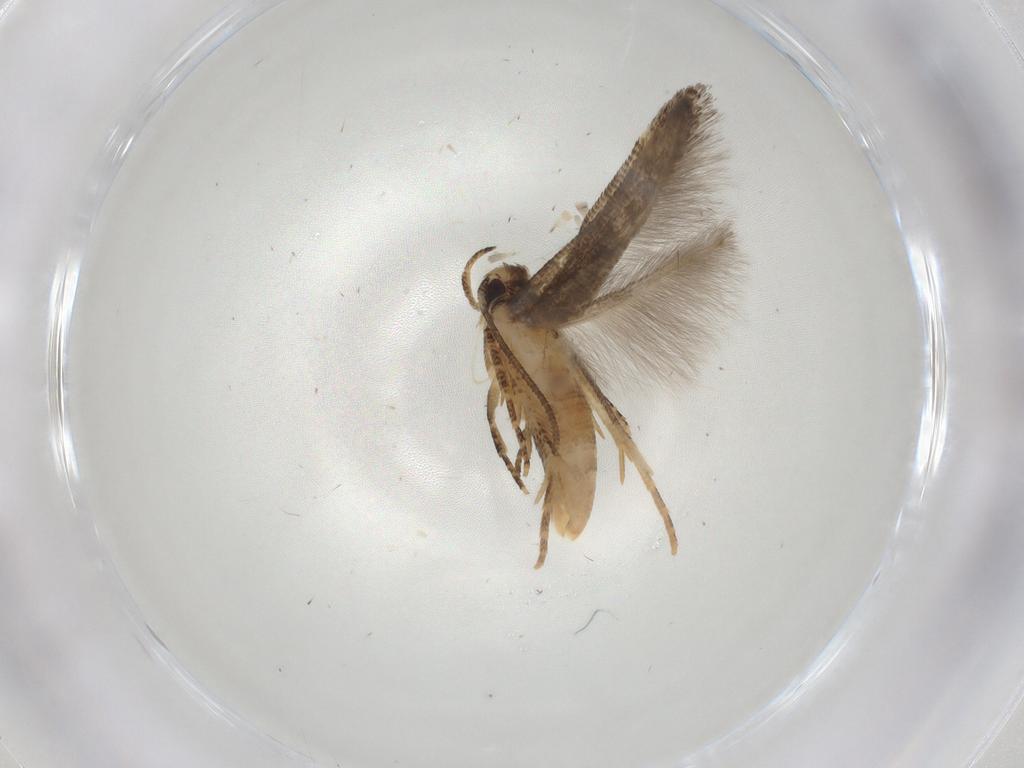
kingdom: Animalia
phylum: Arthropoda
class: Insecta
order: Lepidoptera
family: Cosmopterigidae
